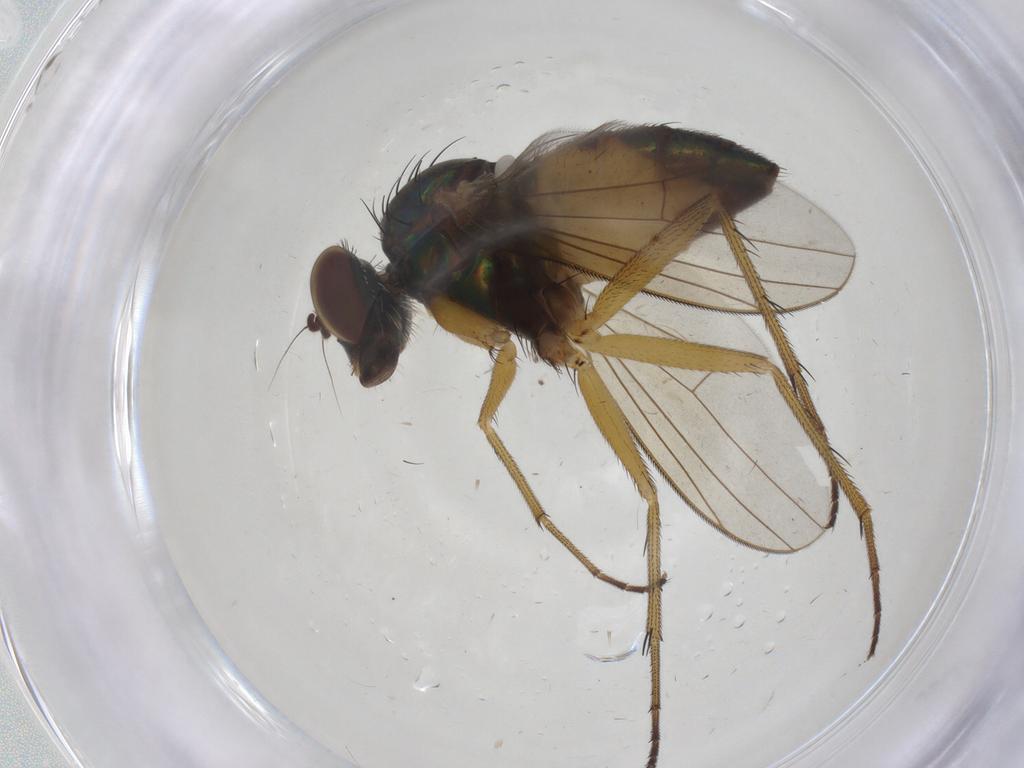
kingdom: Animalia
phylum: Arthropoda
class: Insecta
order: Diptera
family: Dolichopodidae
